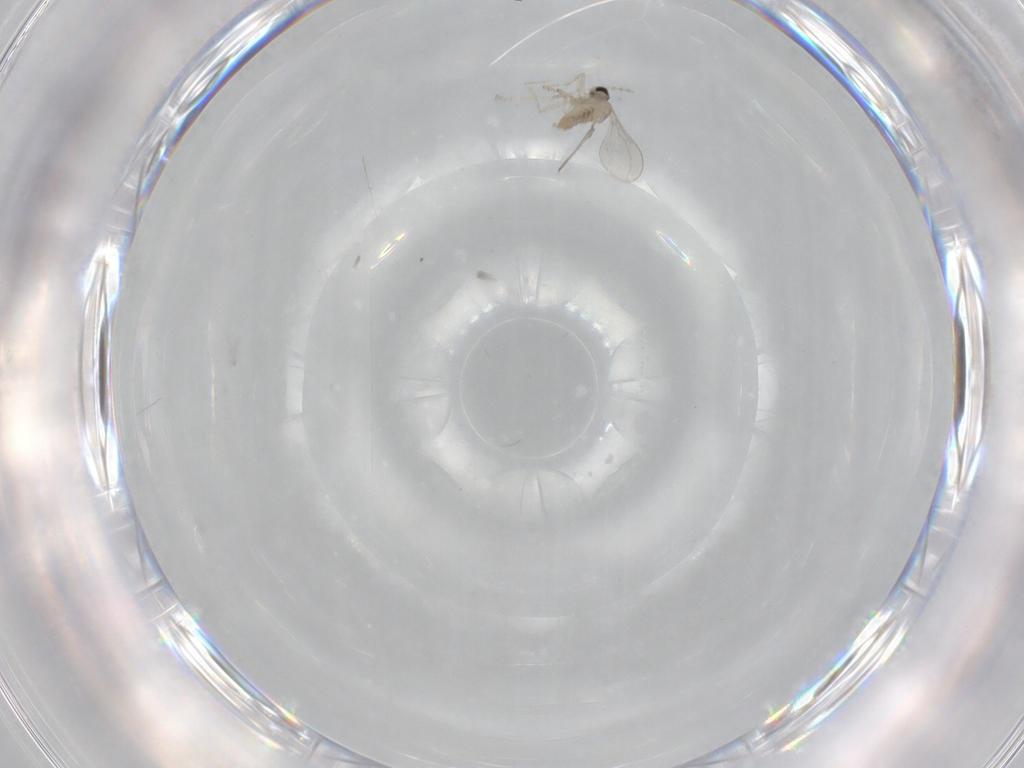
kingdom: Animalia
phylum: Arthropoda
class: Insecta
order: Diptera
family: Cecidomyiidae
